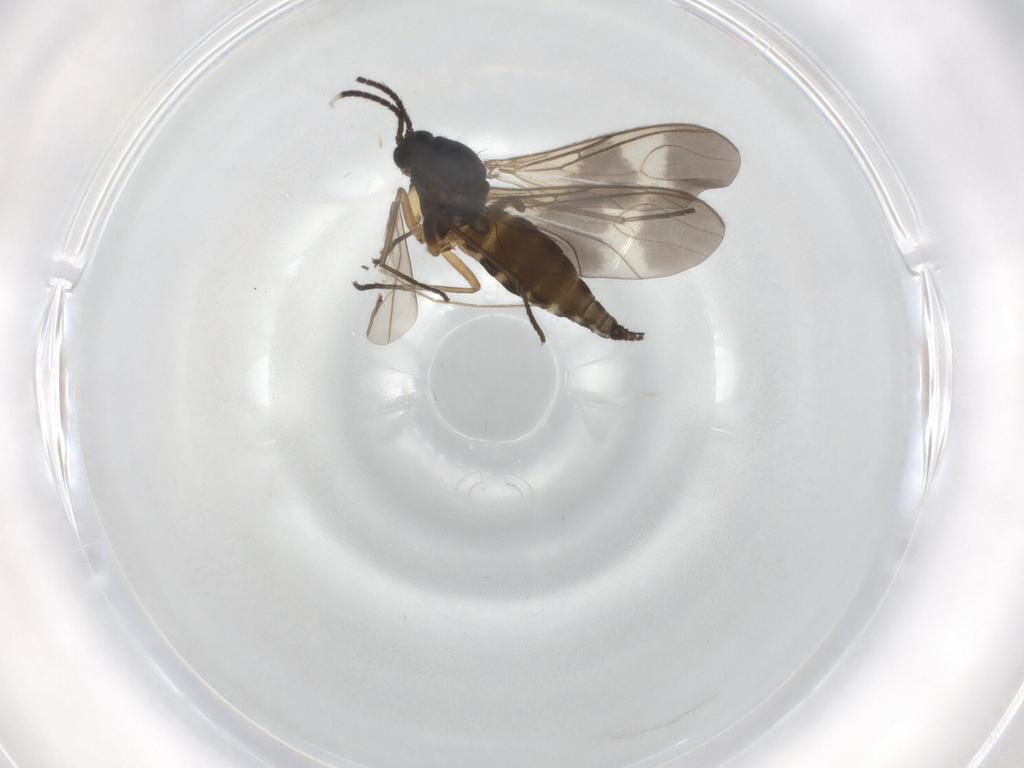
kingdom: Animalia
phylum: Arthropoda
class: Insecta
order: Diptera
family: Sciaridae
